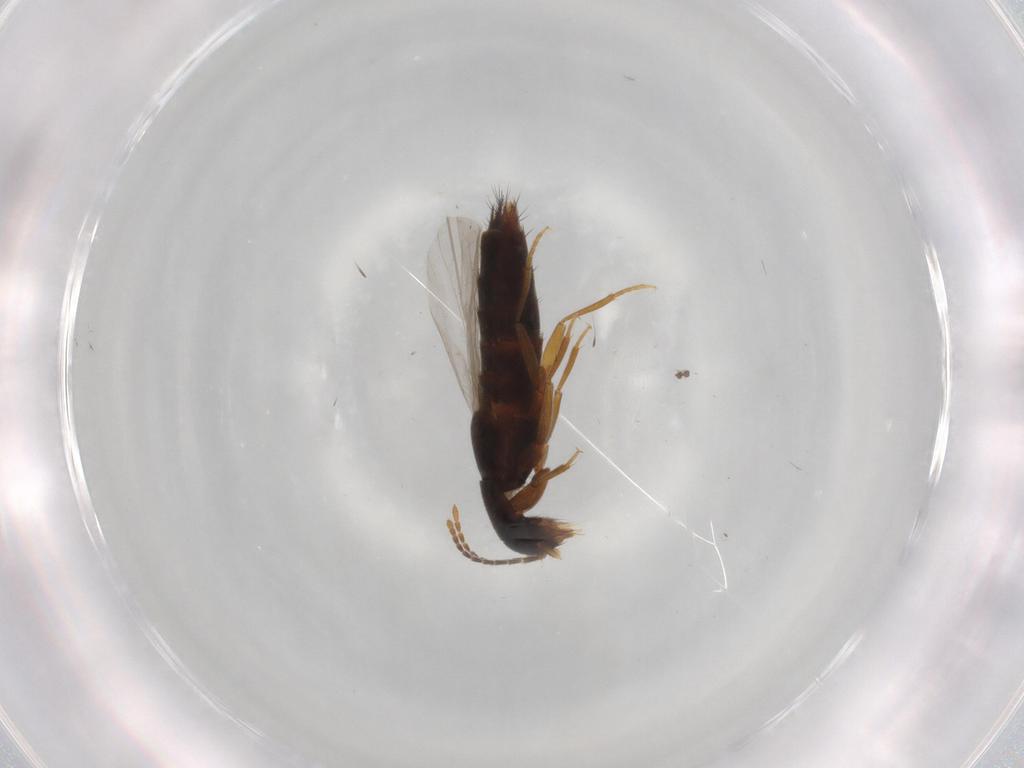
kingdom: Animalia
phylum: Arthropoda
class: Insecta
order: Coleoptera
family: Staphylinidae
